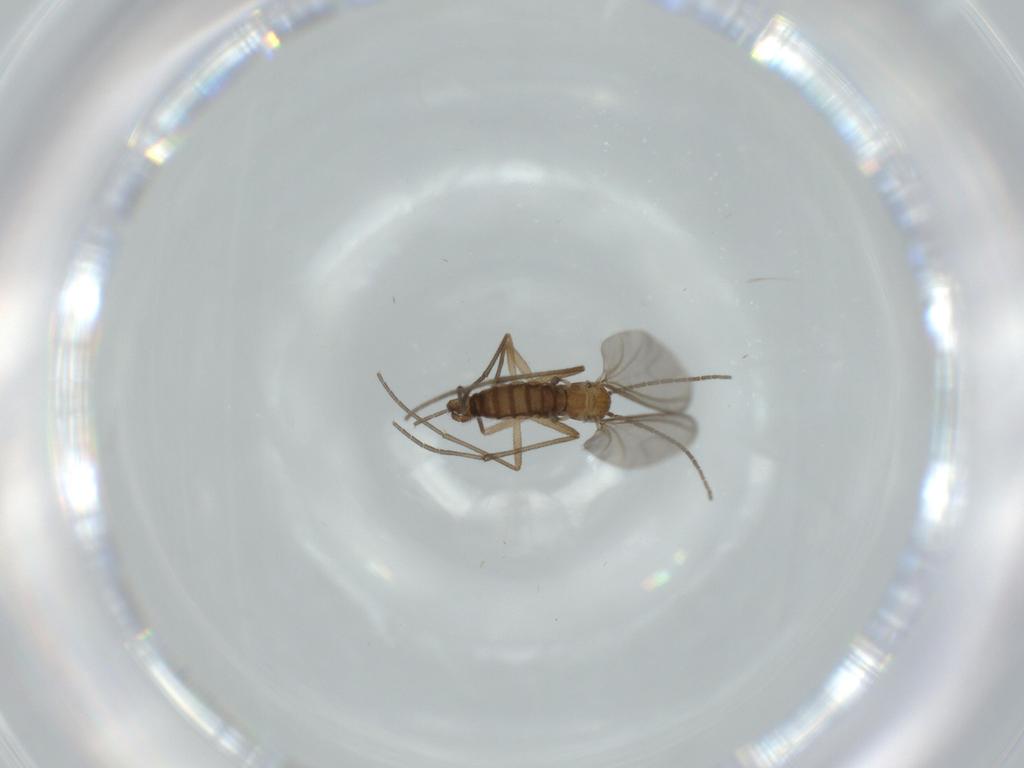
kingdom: Animalia
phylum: Arthropoda
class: Insecta
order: Diptera
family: Sciaridae
